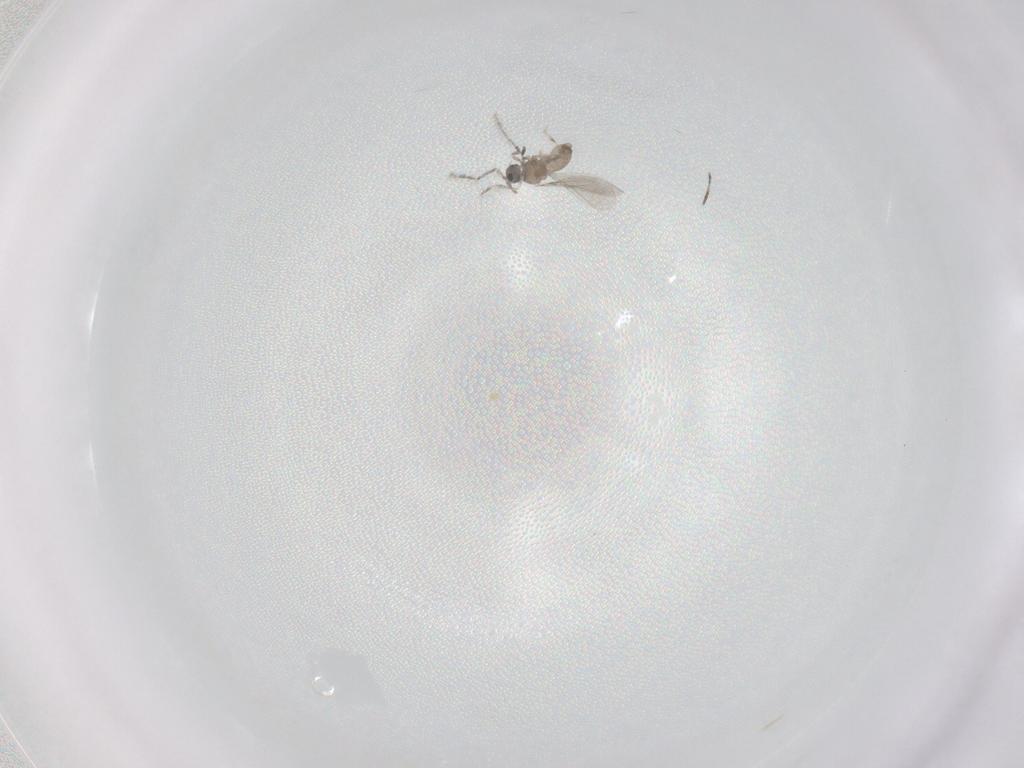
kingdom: Animalia
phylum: Arthropoda
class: Insecta
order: Diptera
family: Cecidomyiidae
